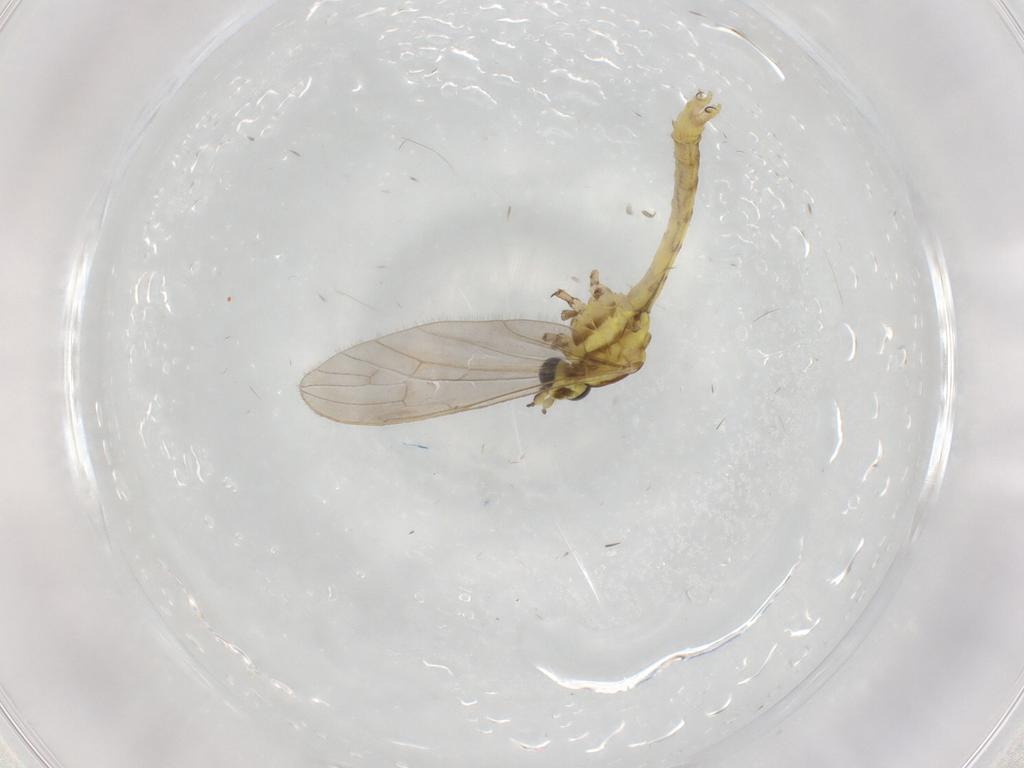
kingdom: Animalia
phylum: Arthropoda
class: Insecta
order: Diptera
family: Limoniidae
